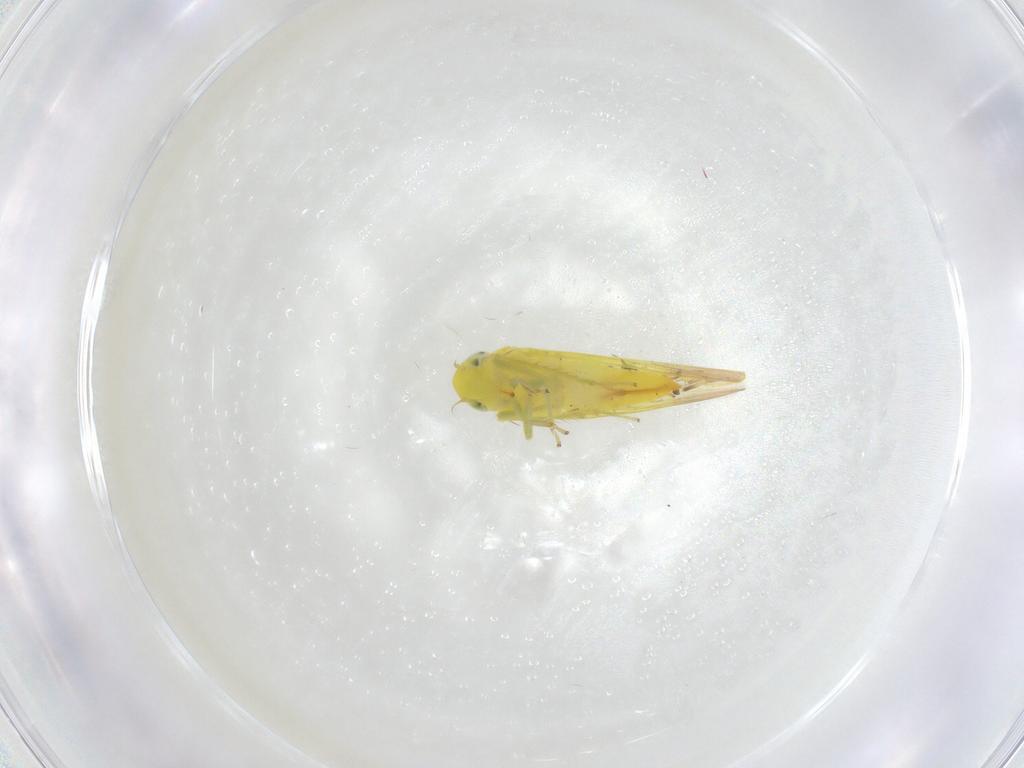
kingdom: Animalia
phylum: Arthropoda
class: Insecta
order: Hemiptera
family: Cicadellidae
